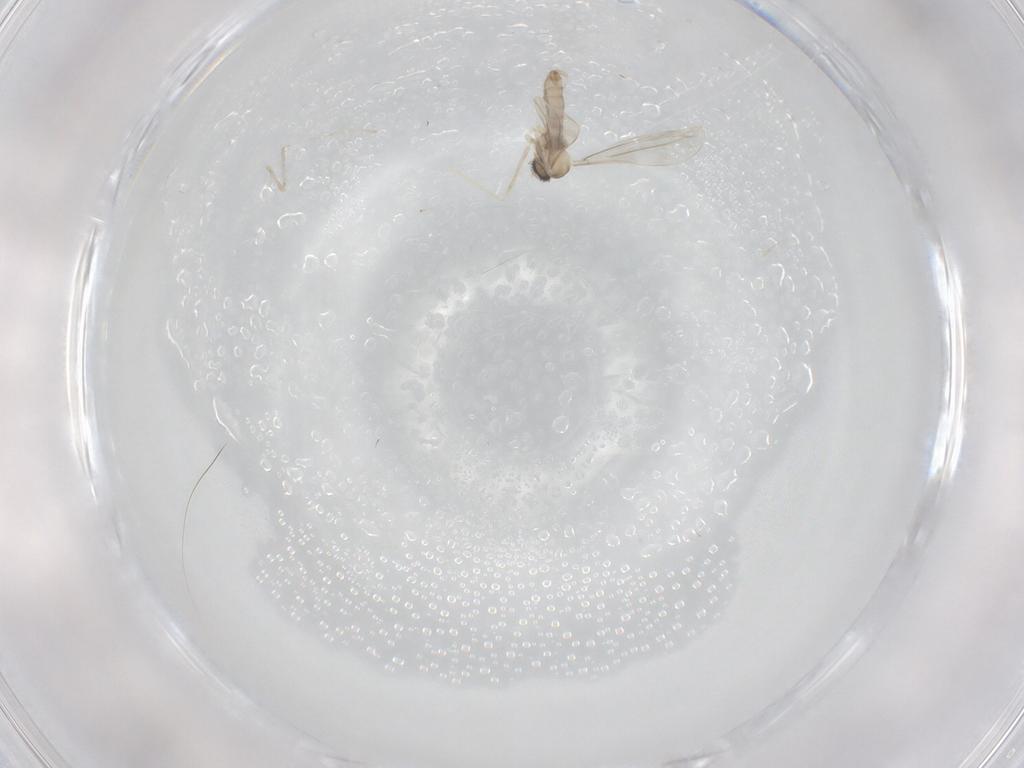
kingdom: Animalia
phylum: Arthropoda
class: Insecta
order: Diptera
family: Cecidomyiidae
